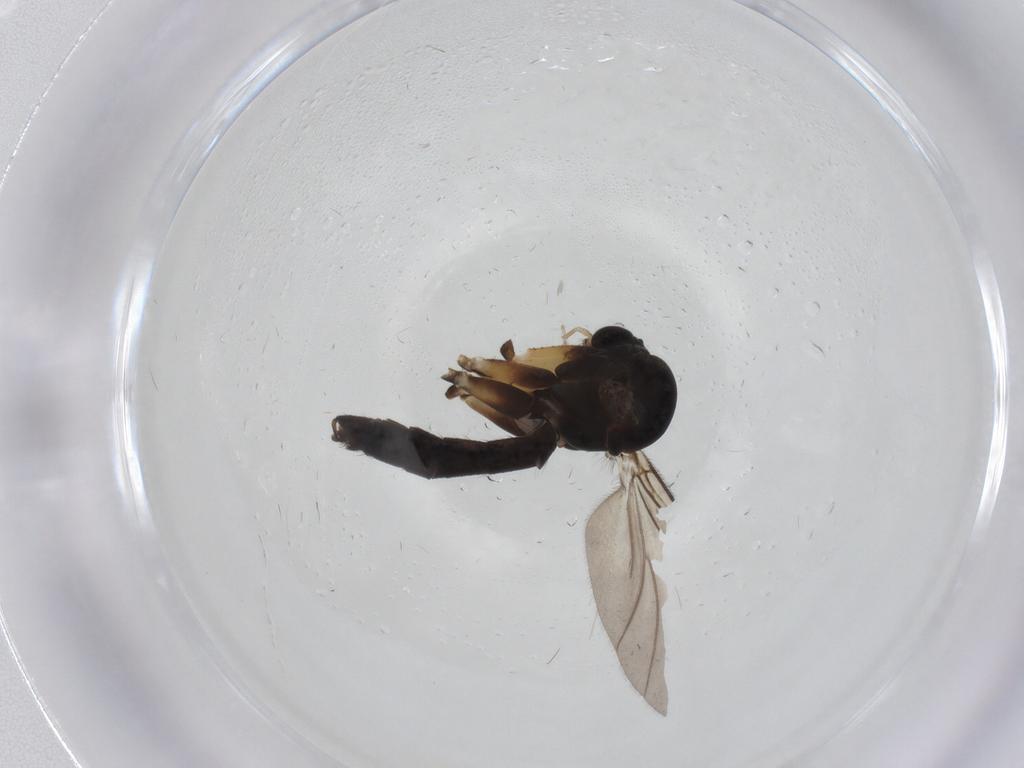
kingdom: Animalia
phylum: Arthropoda
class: Insecta
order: Diptera
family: Mycetophilidae
